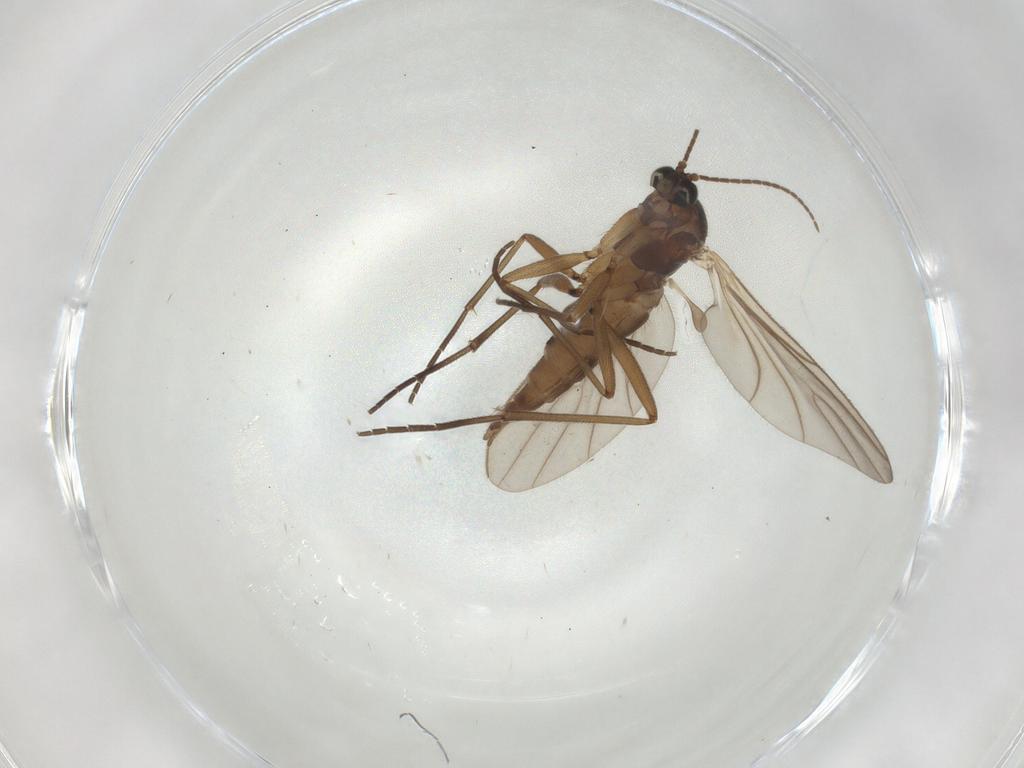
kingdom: Animalia
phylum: Arthropoda
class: Insecta
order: Diptera
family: Sciaridae
